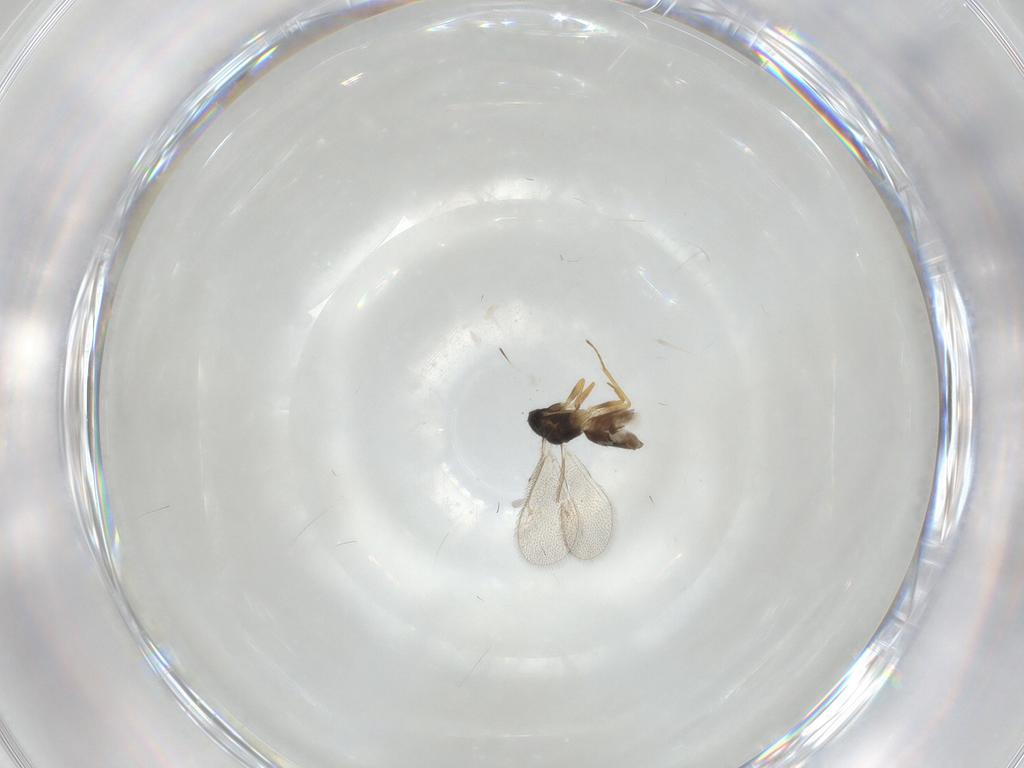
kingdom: Animalia
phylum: Arthropoda
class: Insecta
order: Hymenoptera
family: Eulophidae
